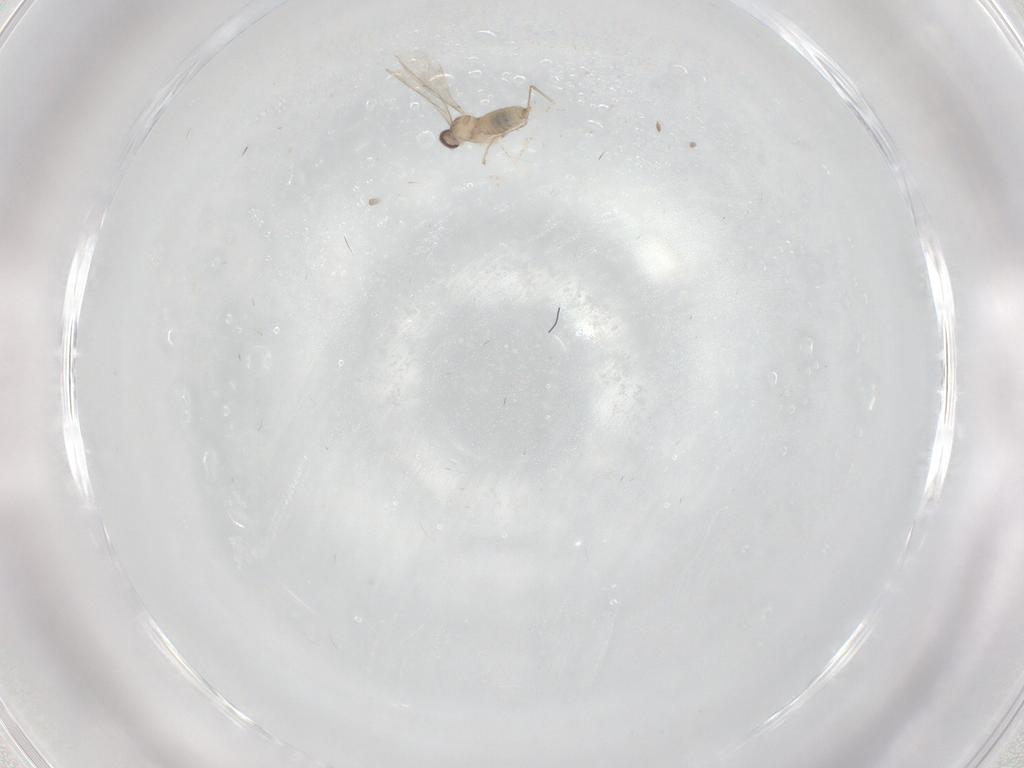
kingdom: Animalia
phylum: Arthropoda
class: Insecta
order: Diptera
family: Cecidomyiidae
